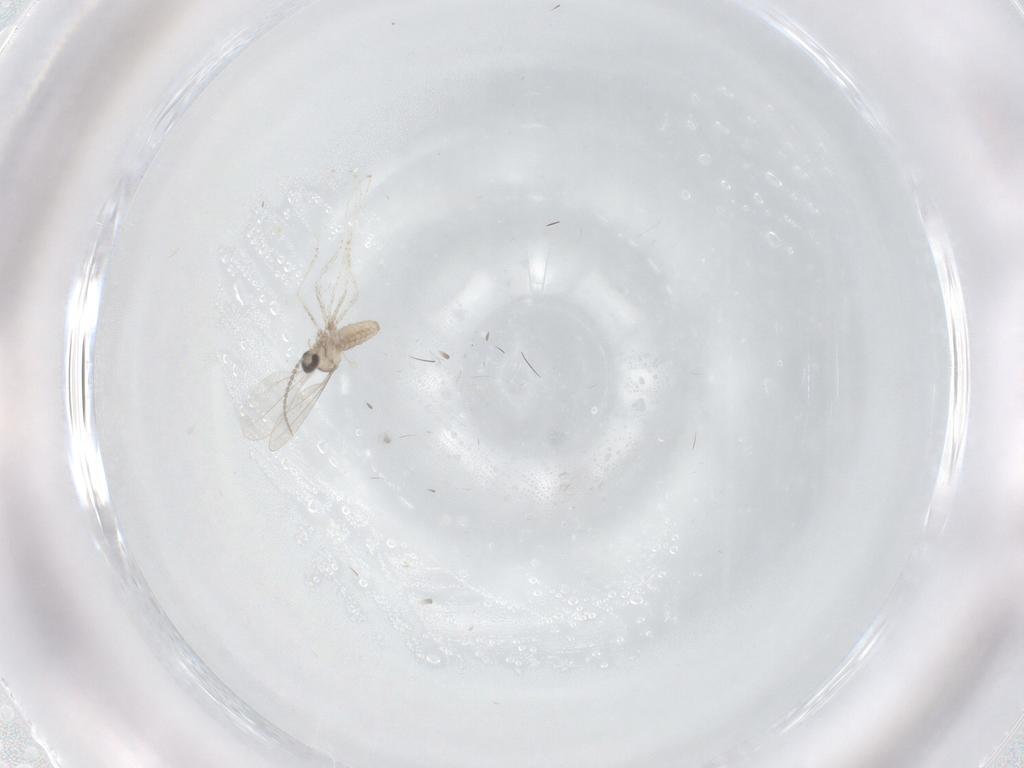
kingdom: Animalia
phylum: Arthropoda
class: Insecta
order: Diptera
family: Cecidomyiidae
